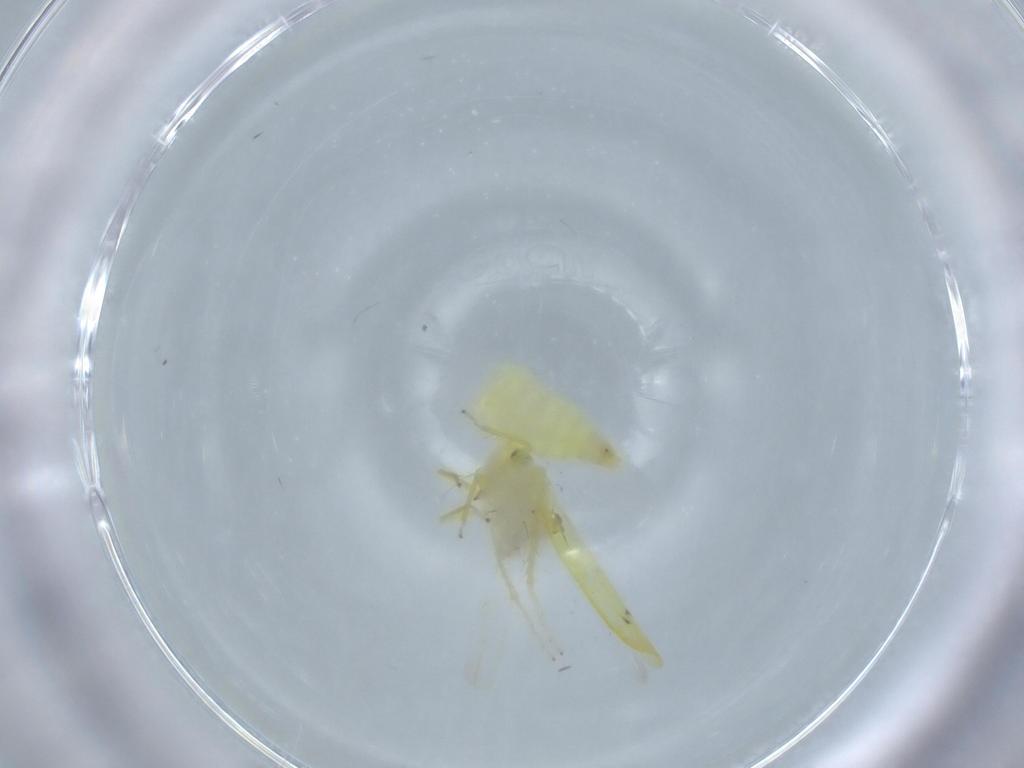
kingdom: Animalia
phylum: Arthropoda
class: Insecta
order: Hemiptera
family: Cicadellidae
